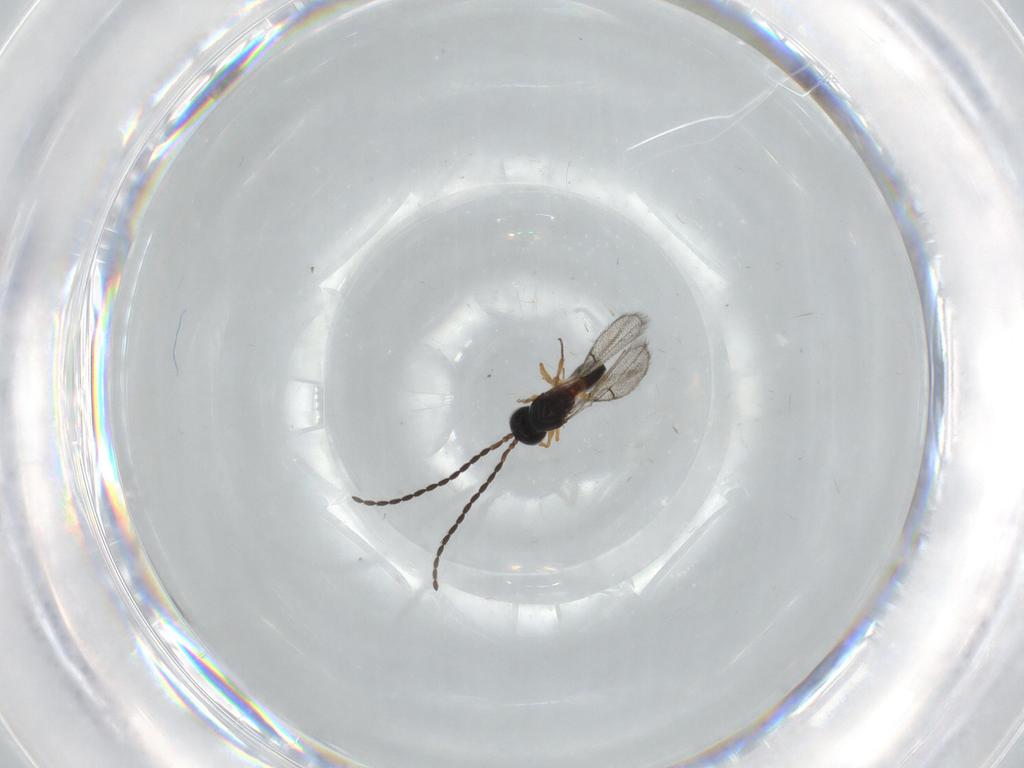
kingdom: Animalia
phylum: Arthropoda
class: Insecta
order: Hymenoptera
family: Figitidae
